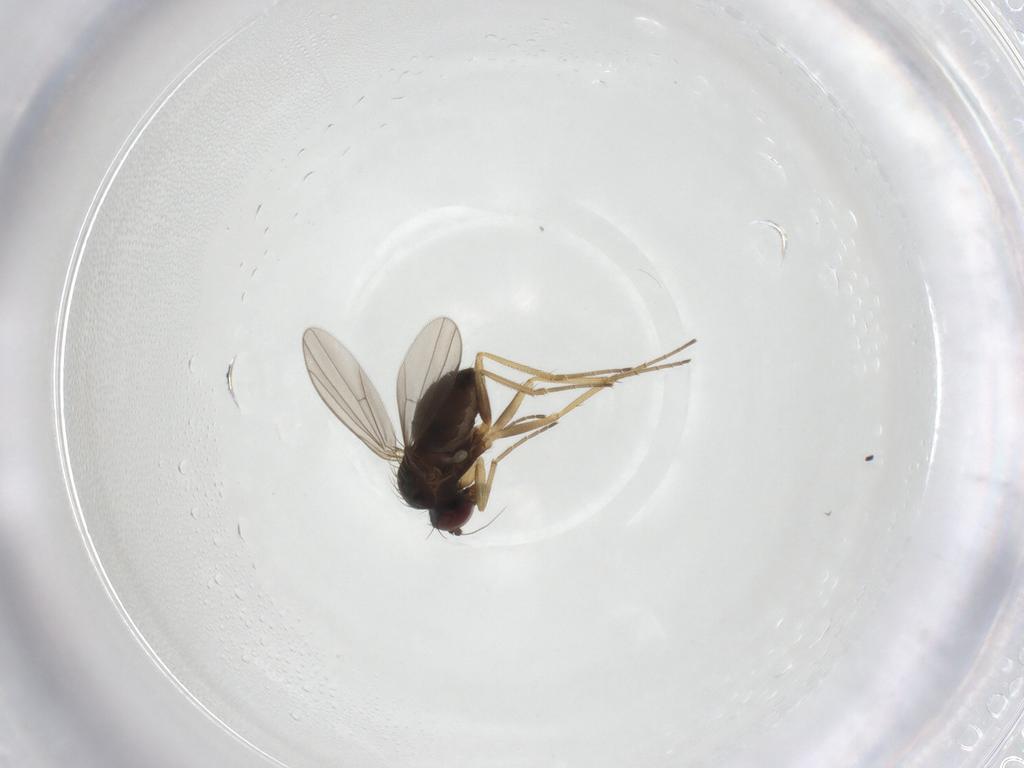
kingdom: Animalia
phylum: Arthropoda
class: Insecta
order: Diptera
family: Dolichopodidae
